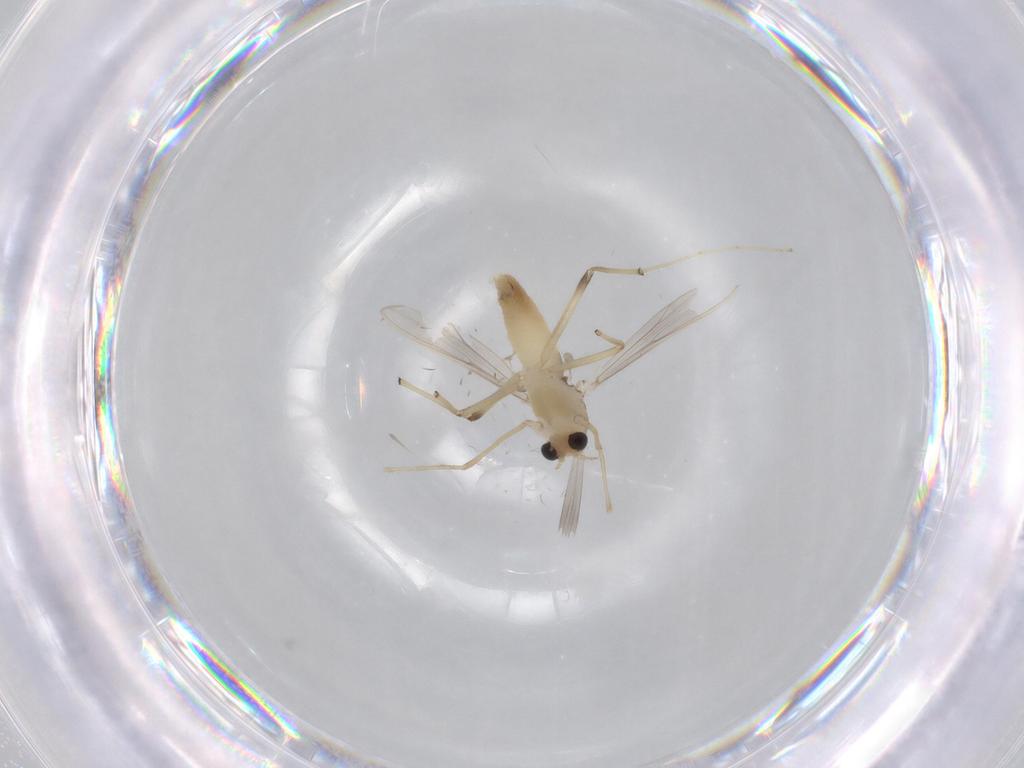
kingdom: Animalia
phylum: Arthropoda
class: Insecta
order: Diptera
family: Chironomidae
